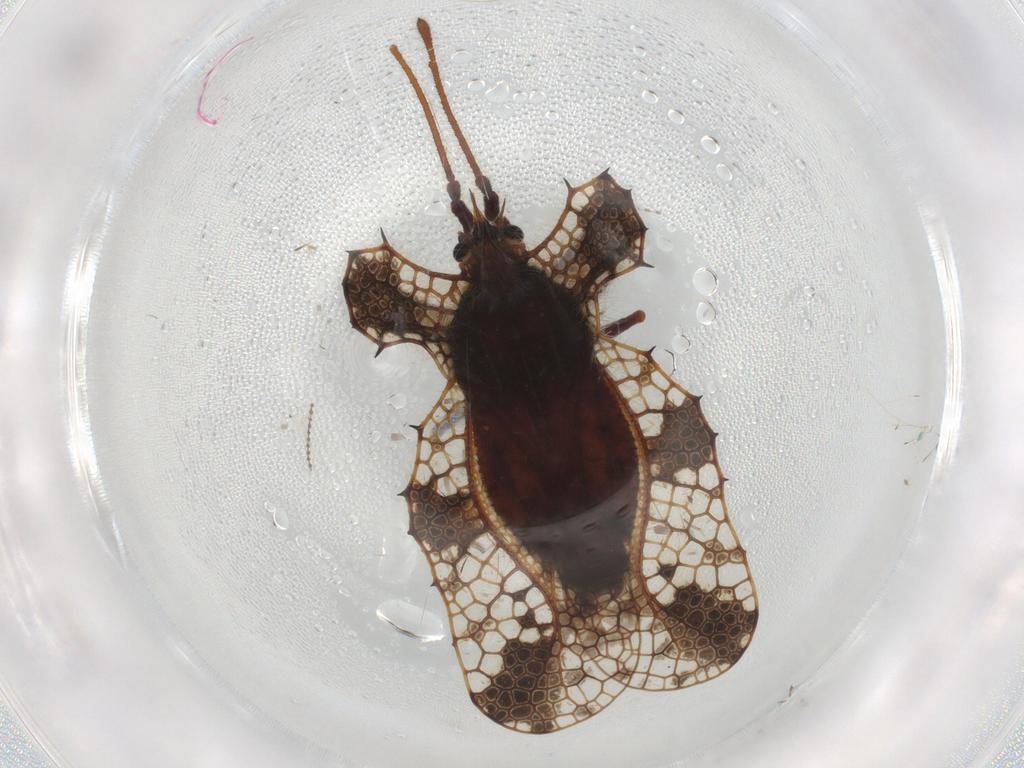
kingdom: Animalia
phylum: Arthropoda
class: Insecta
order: Hemiptera
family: Tingidae
